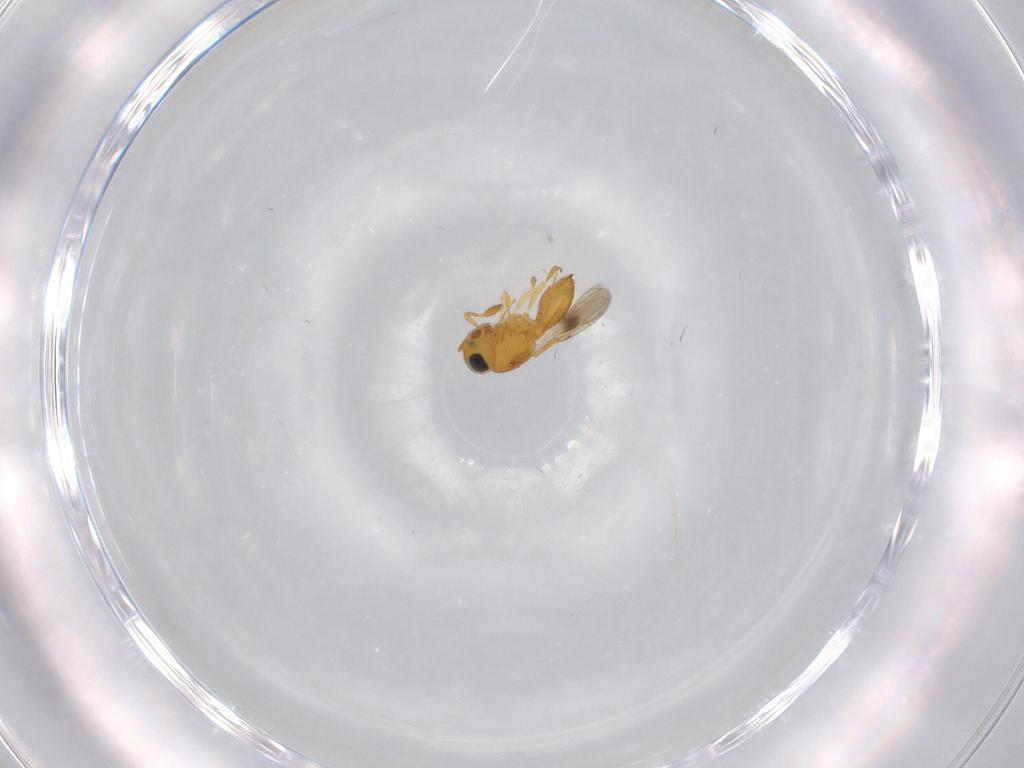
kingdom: Animalia
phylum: Arthropoda
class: Insecta
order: Hymenoptera
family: Scelionidae
